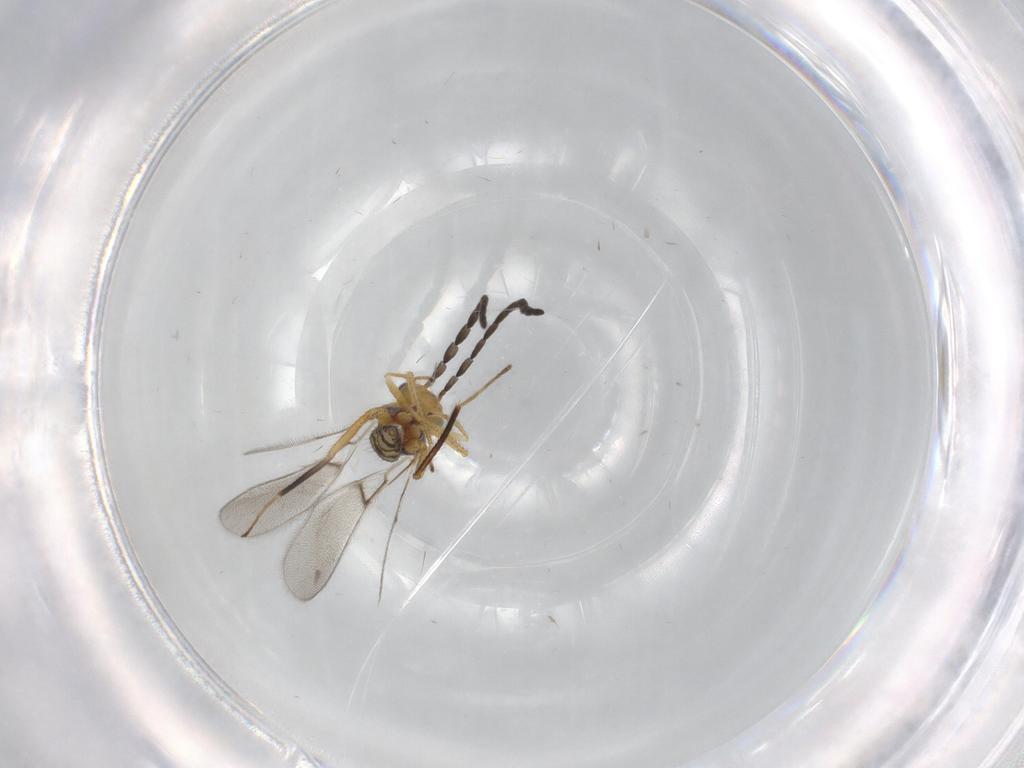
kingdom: Animalia
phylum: Arthropoda
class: Insecta
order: Hymenoptera
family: Mymaridae
